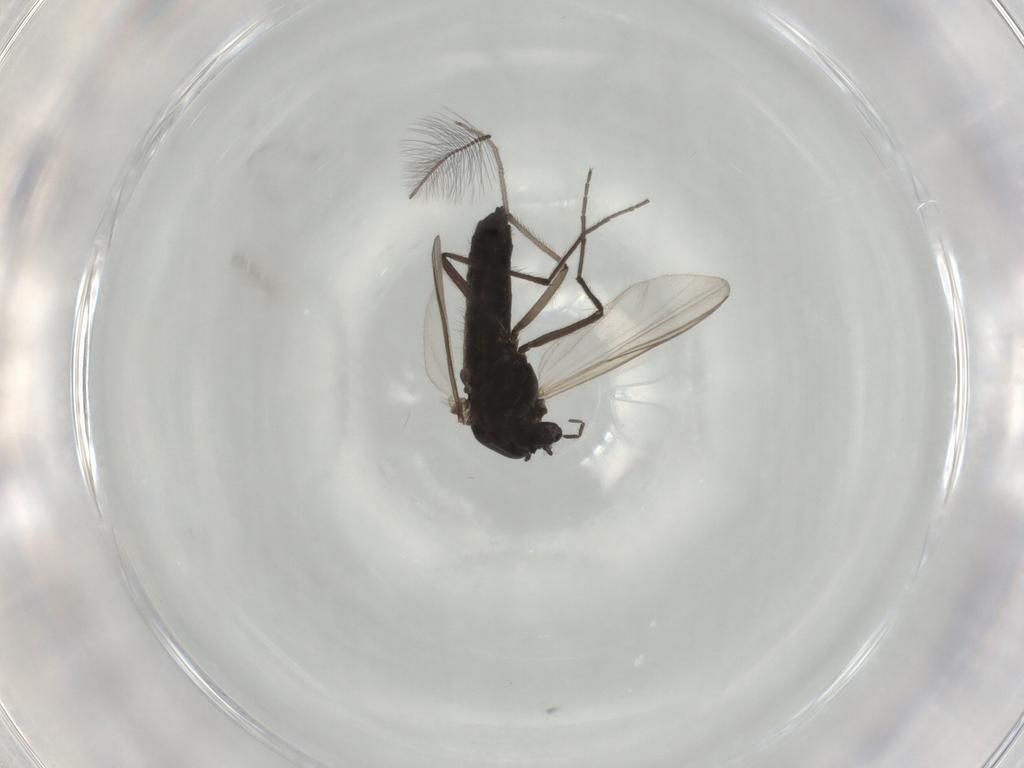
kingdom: Animalia
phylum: Arthropoda
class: Insecta
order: Diptera
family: Chironomidae
